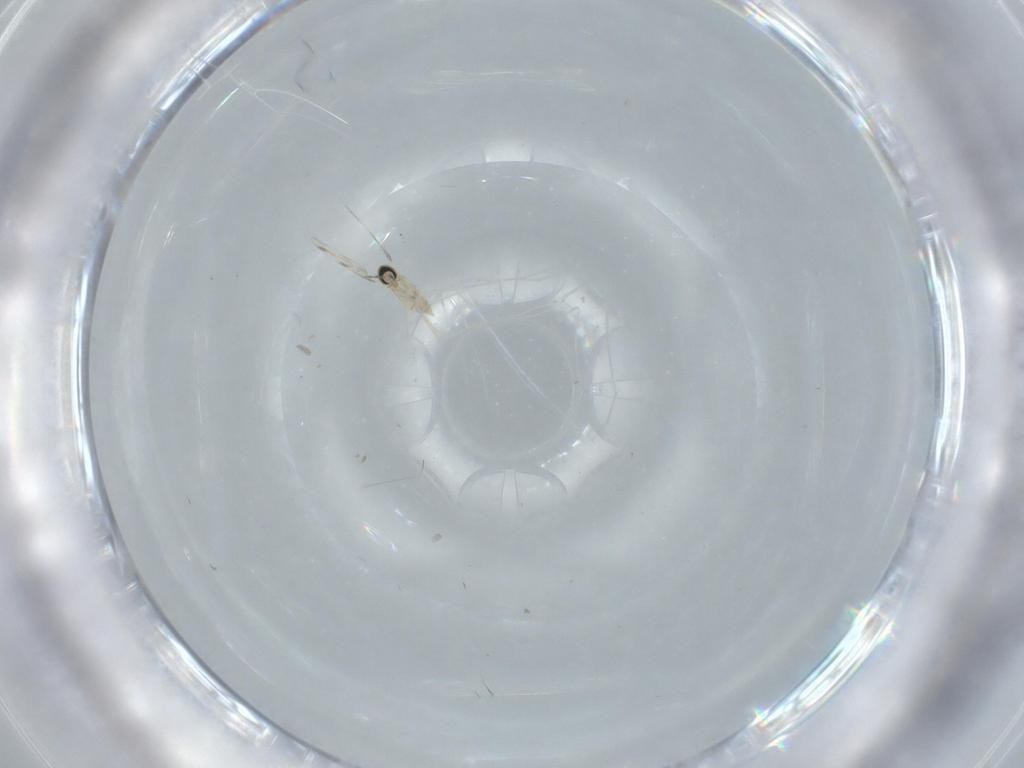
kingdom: Animalia
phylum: Arthropoda
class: Insecta
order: Diptera
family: Cecidomyiidae
